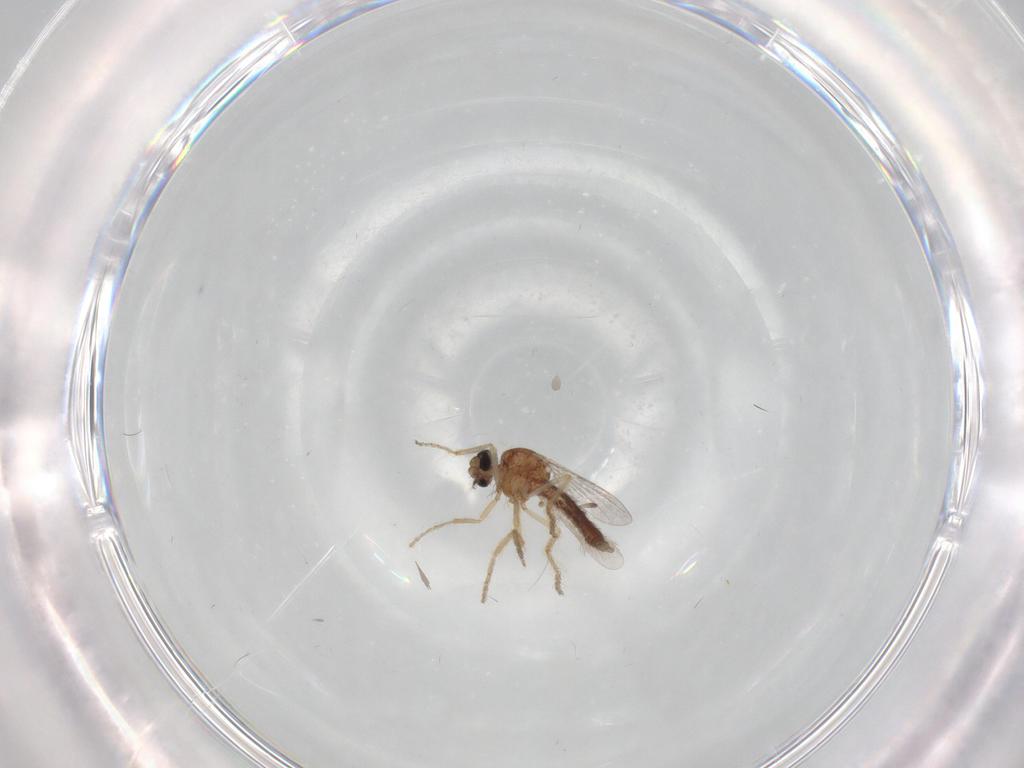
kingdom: Animalia
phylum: Arthropoda
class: Insecta
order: Diptera
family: Ceratopogonidae
